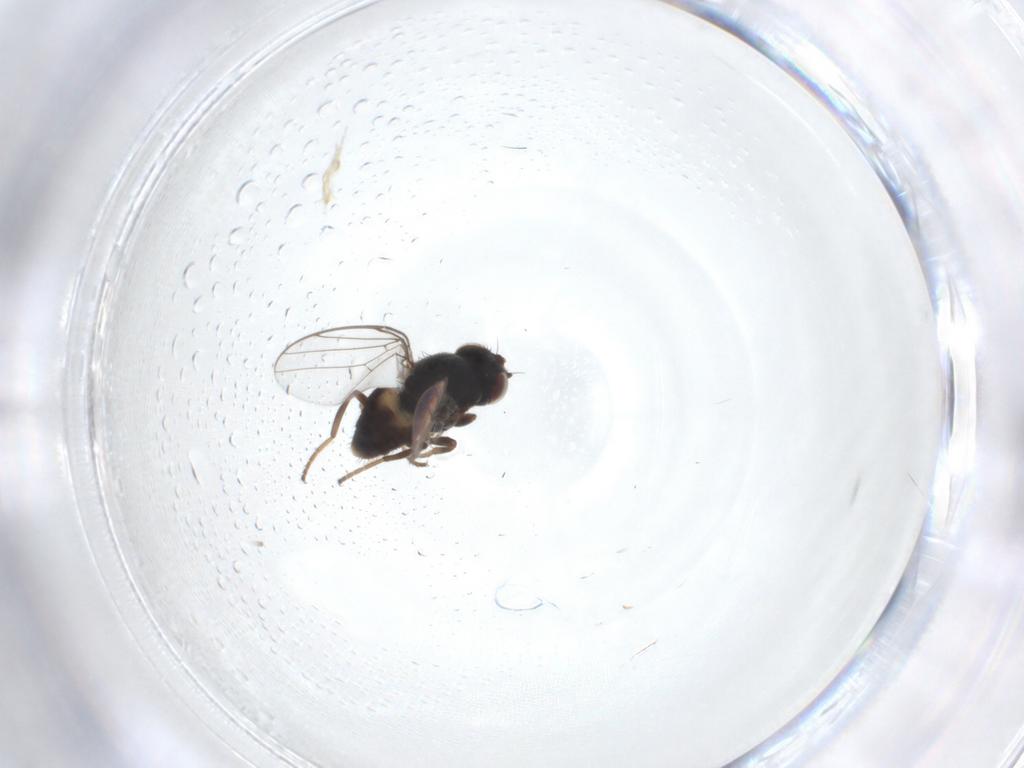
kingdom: Animalia
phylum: Arthropoda
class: Insecta
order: Diptera
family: Chloropidae
